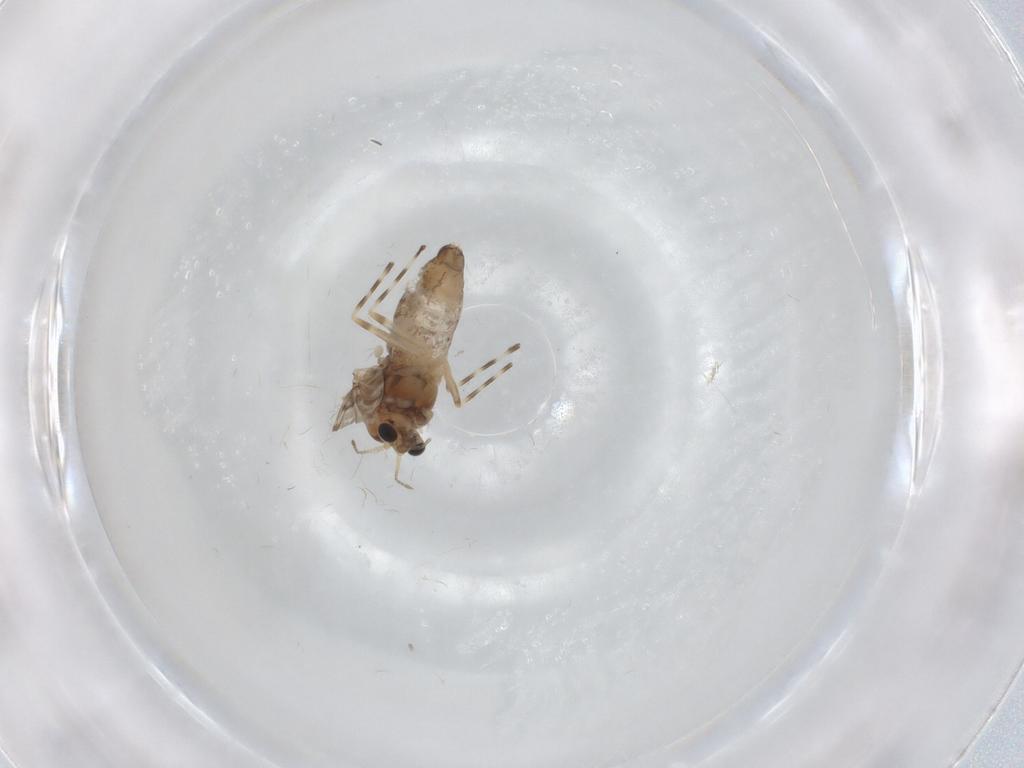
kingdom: Animalia
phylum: Arthropoda
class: Insecta
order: Diptera
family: Chironomidae
